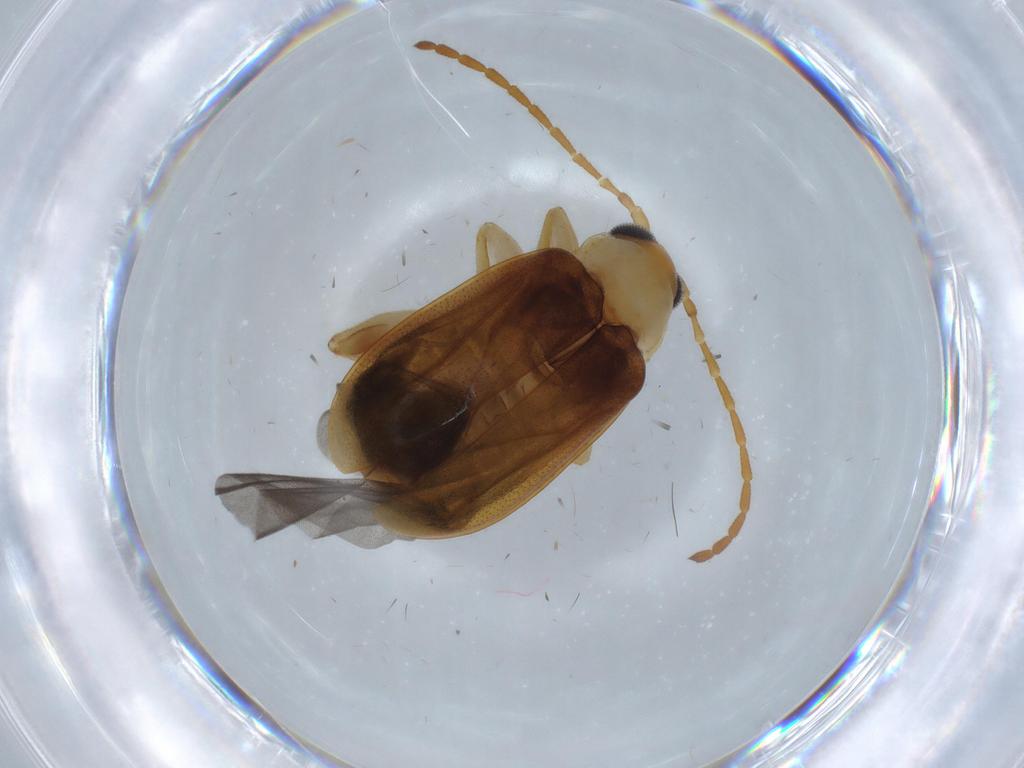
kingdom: Animalia
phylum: Arthropoda
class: Insecta
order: Coleoptera
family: Chrysomelidae
